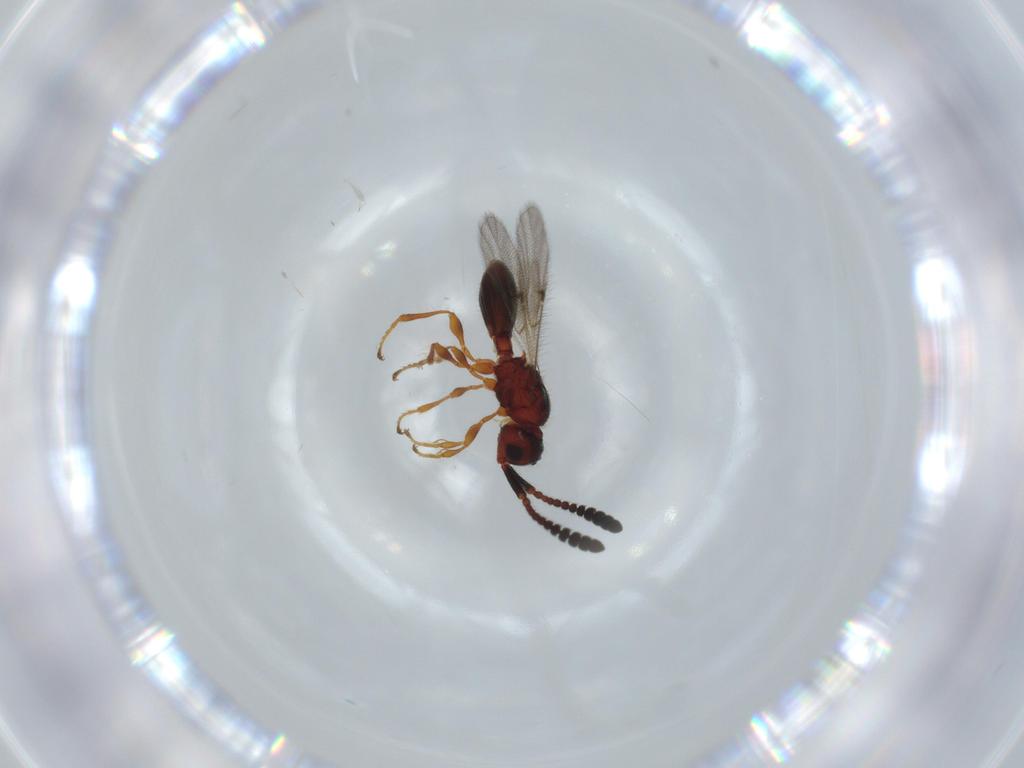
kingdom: Animalia
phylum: Arthropoda
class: Insecta
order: Hymenoptera
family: Diapriidae
